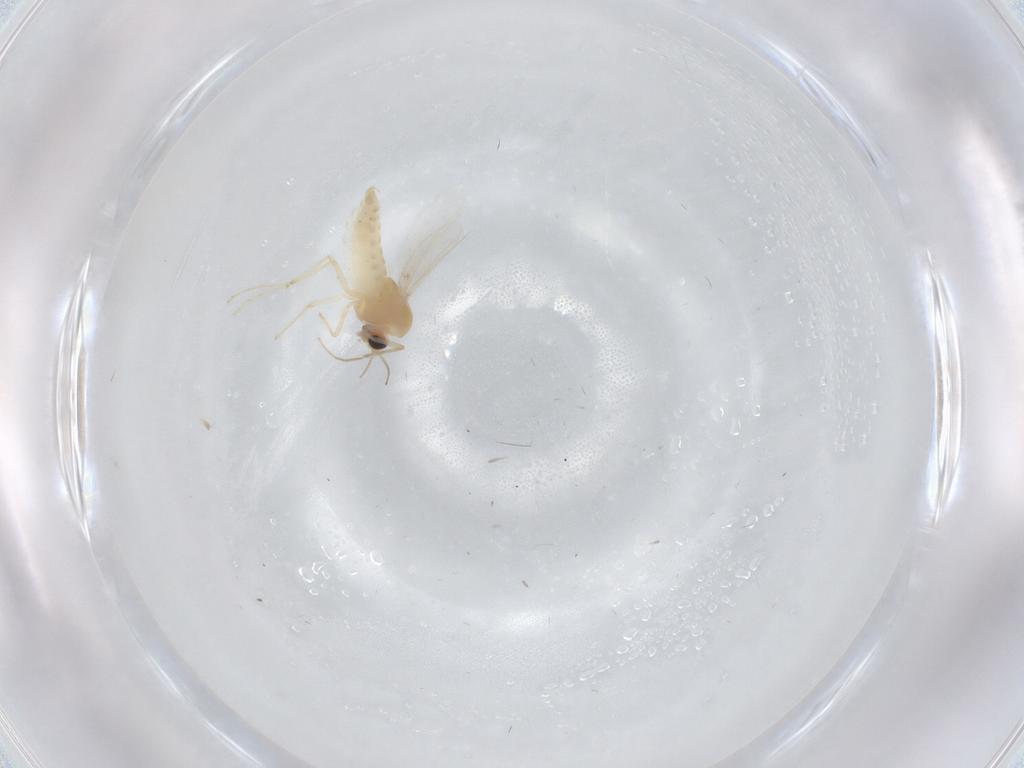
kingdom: Animalia
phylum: Arthropoda
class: Insecta
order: Diptera
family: Chironomidae
